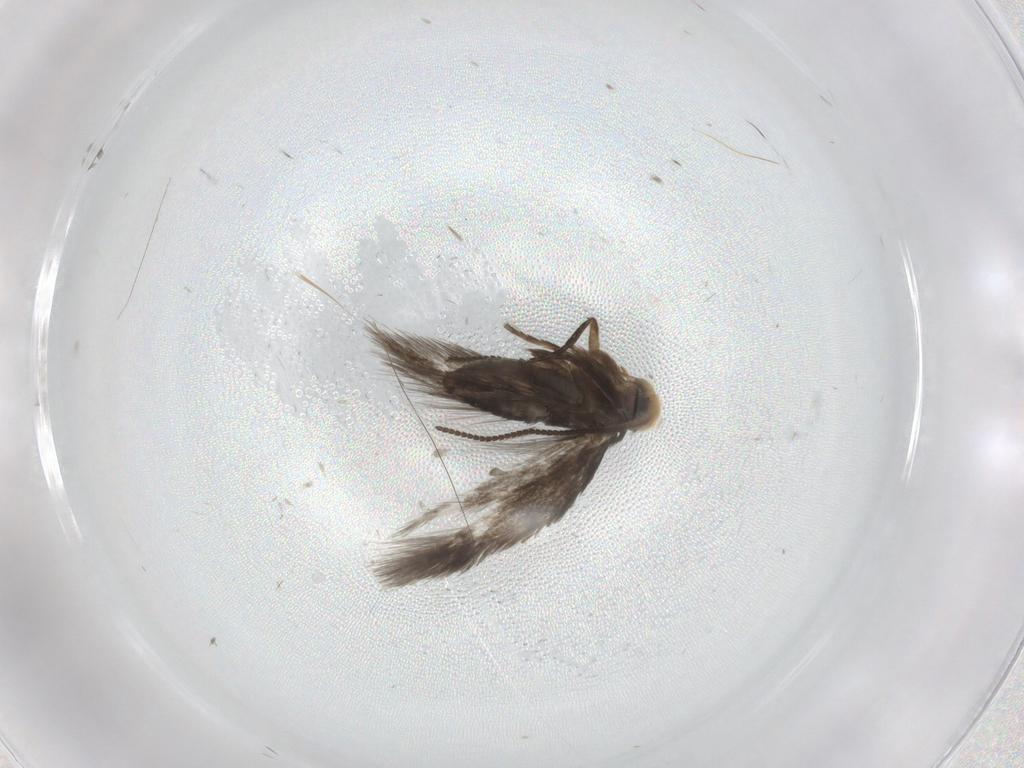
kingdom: Animalia
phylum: Arthropoda
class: Insecta
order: Lepidoptera
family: Nepticulidae
